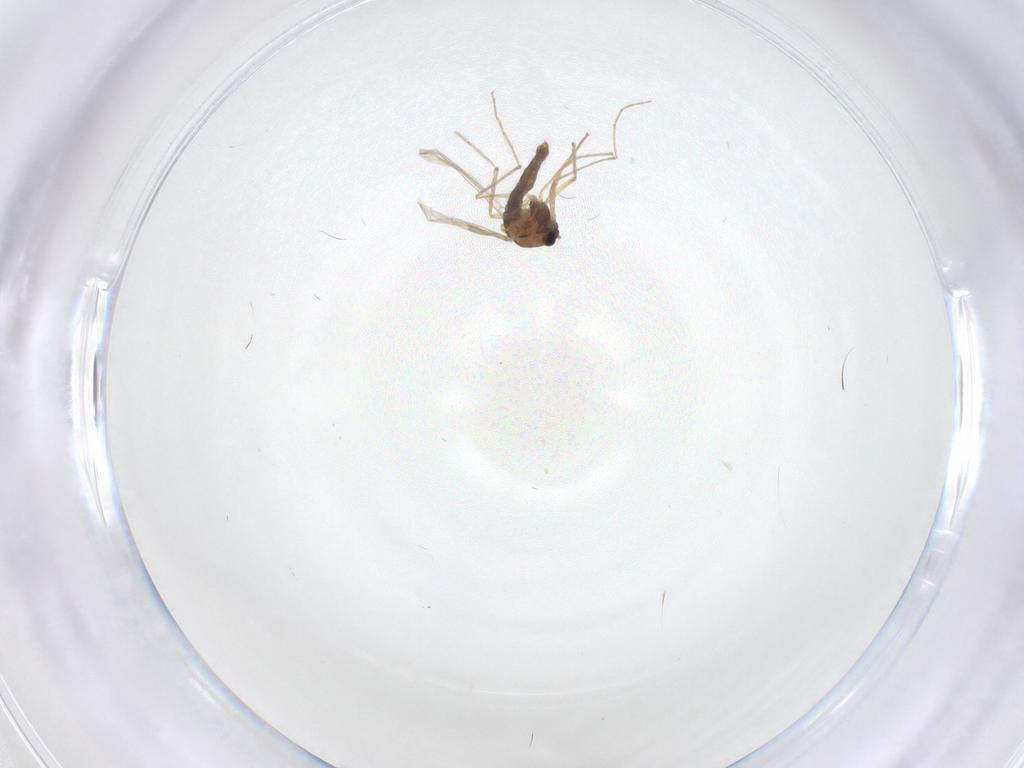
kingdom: Animalia
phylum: Arthropoda
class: Insecta
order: Diptera
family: Chironomidae
